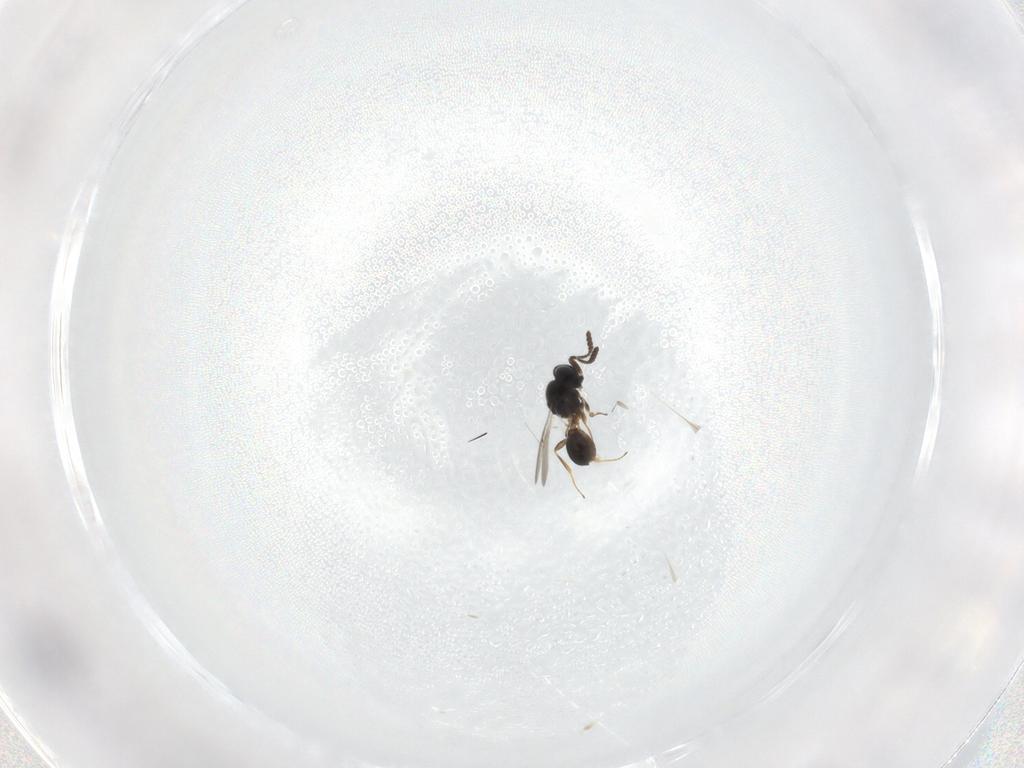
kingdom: Animalia
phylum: Arthropoda
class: Insecta
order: Hymenoptera
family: Scelionidae
